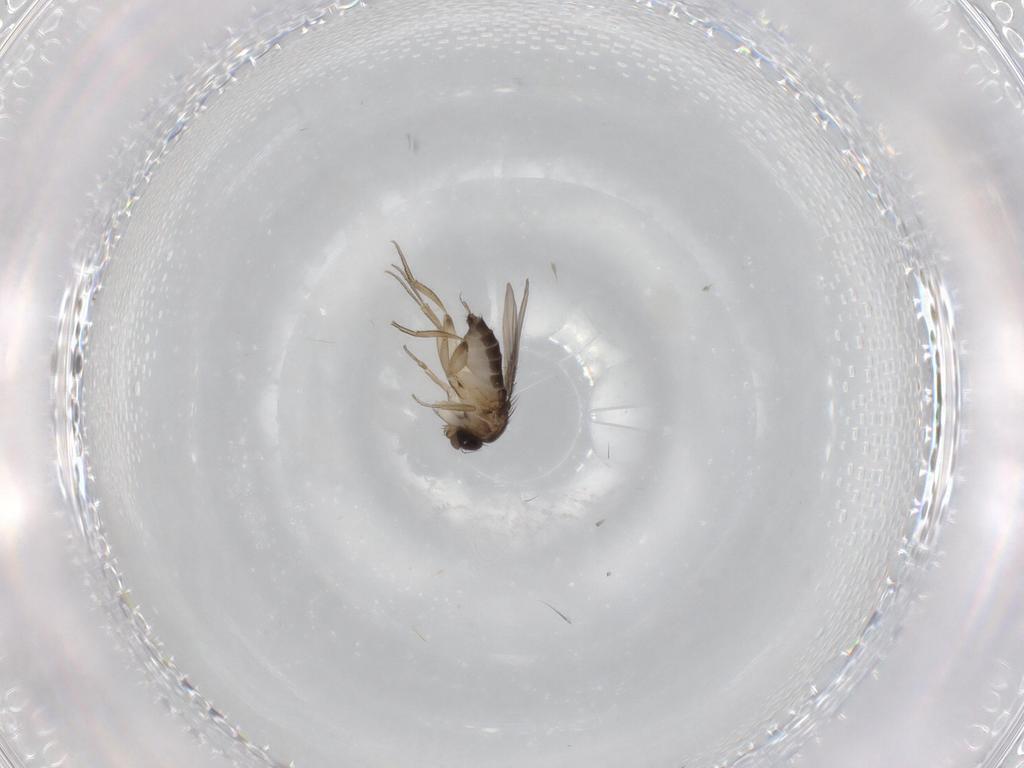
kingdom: Animalia
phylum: Arthropoda
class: Insecta
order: Diptera
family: Phoridae
